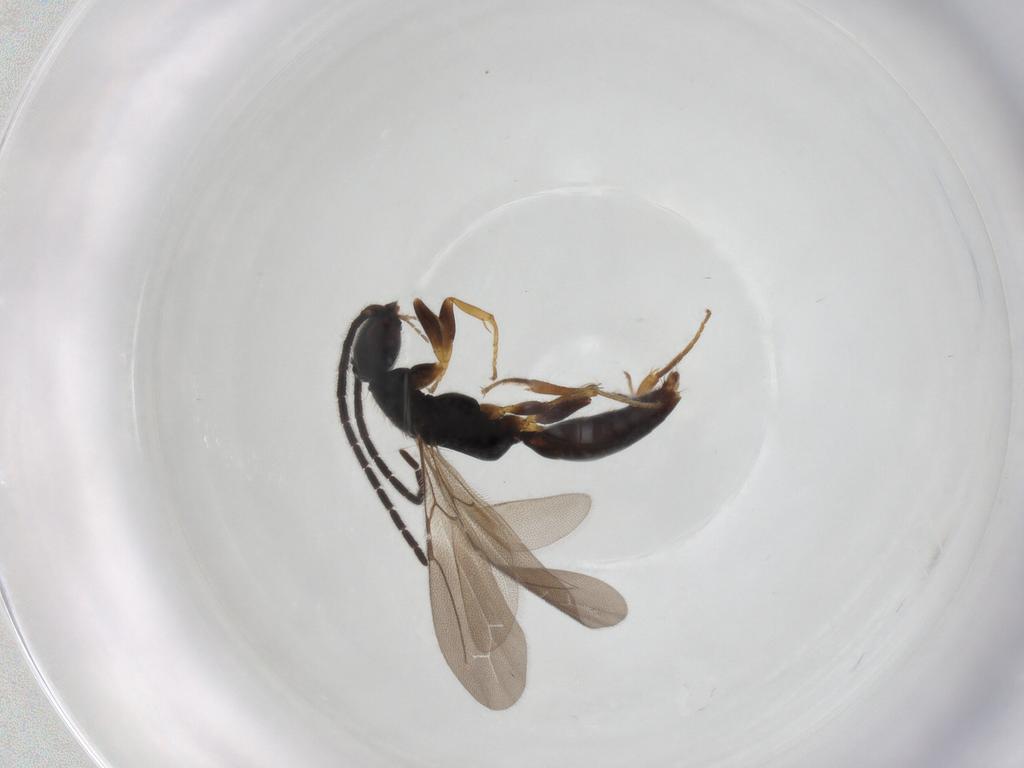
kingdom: Animalia
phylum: Arthropoda
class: Insecta
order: Hymenoptera
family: Bethylidae
